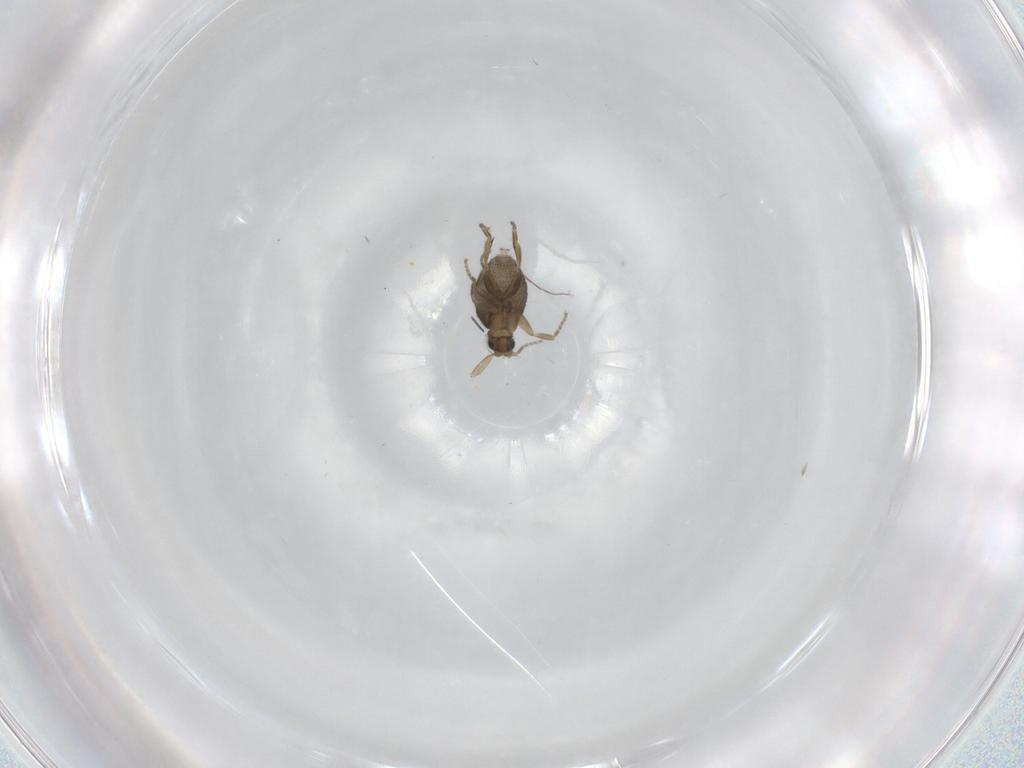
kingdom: Animalia
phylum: Arthropoda
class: Insecta
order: Diptera
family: Phoridae
